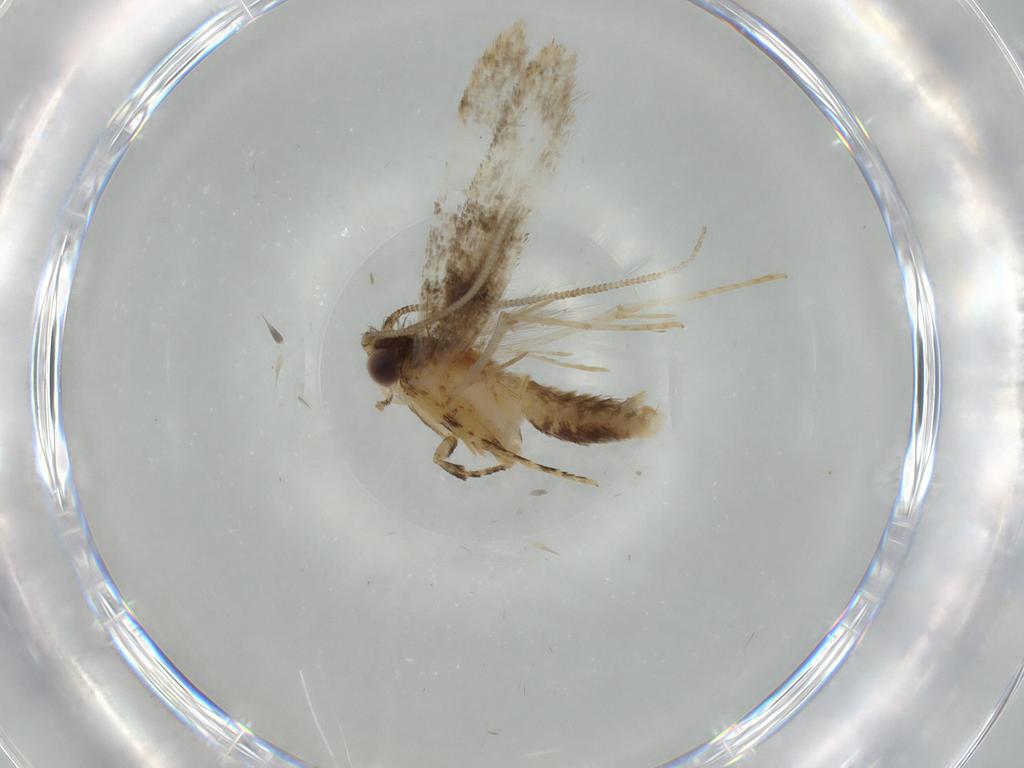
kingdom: Animalia
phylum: Arthropoda
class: Insecta
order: Lepidoptera
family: Tineidae
